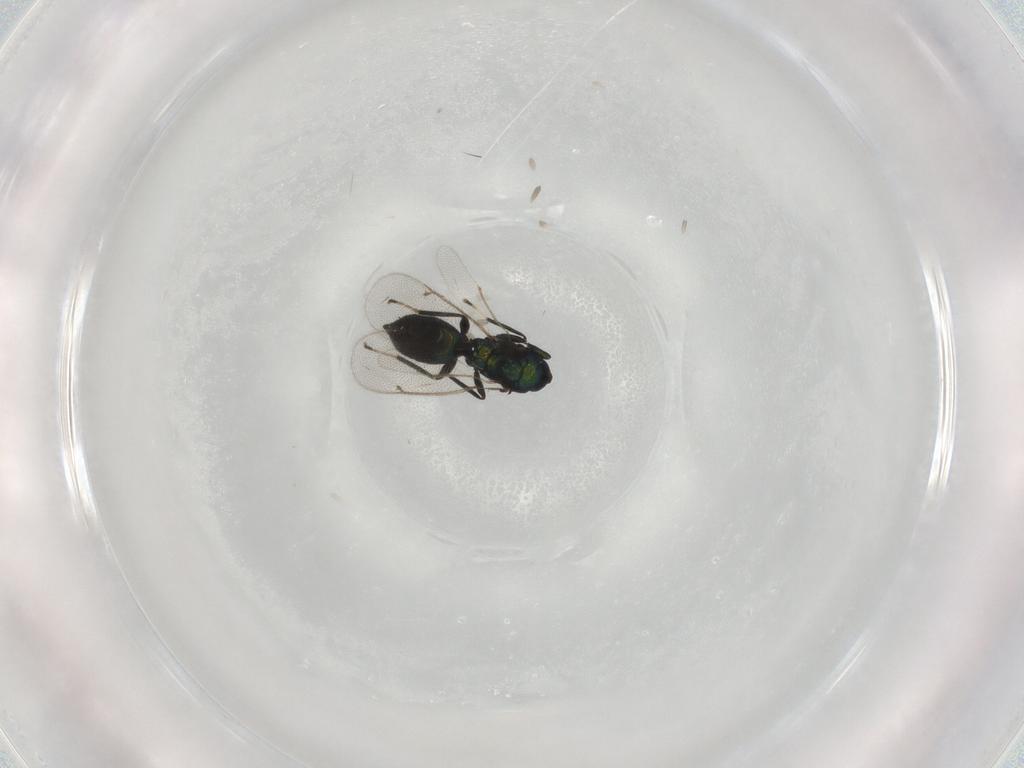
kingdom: Animalia
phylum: Arthropoda
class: Insecta
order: Hymenoptera
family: Eulophidae
